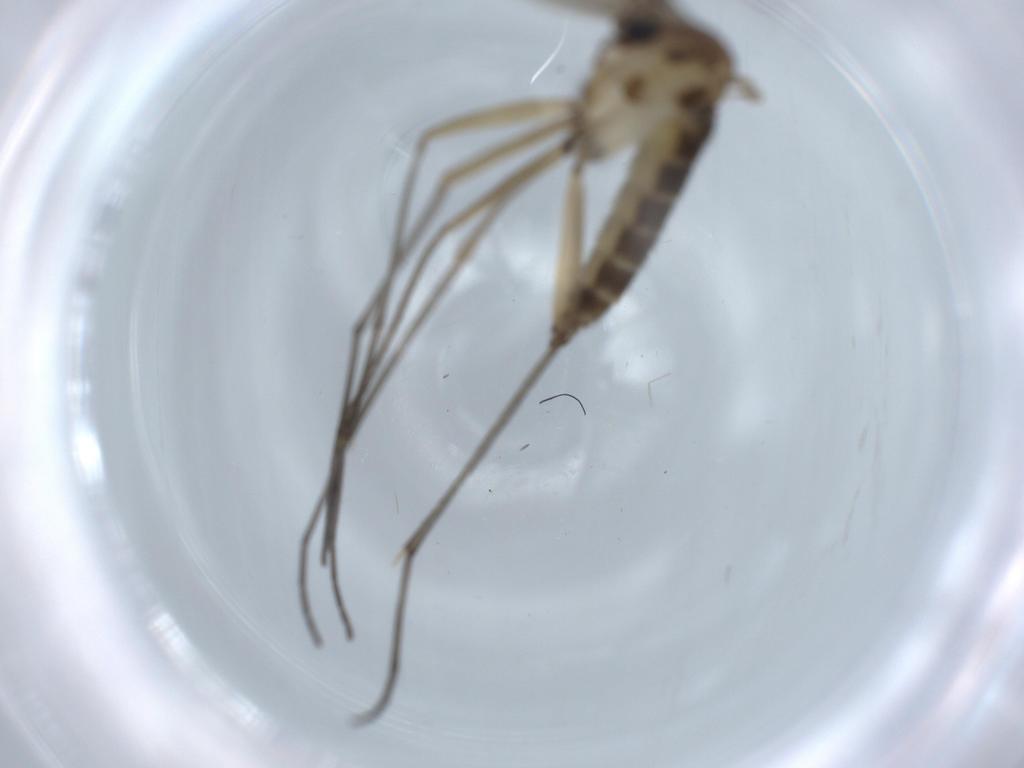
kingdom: Animalia
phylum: Arthropoda
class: Insecta
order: Diptera
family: Sciaridae
